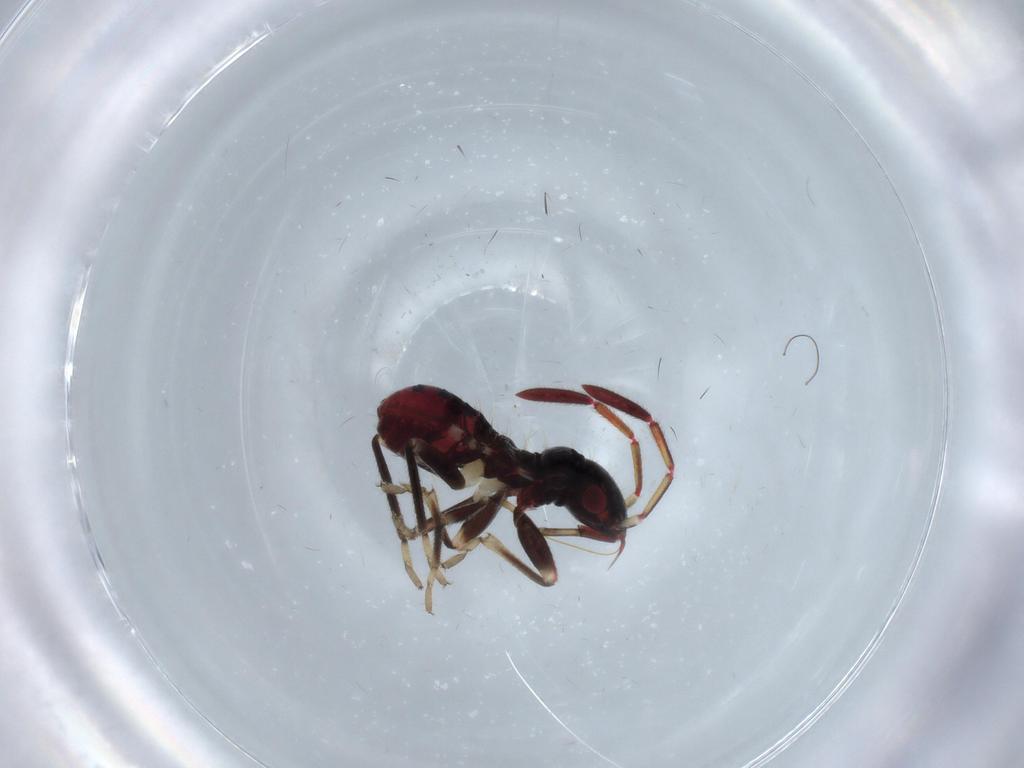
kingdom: Animalia
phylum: Arthropoda
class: Insecta
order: Hemiptera
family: Rhyparochromidae
